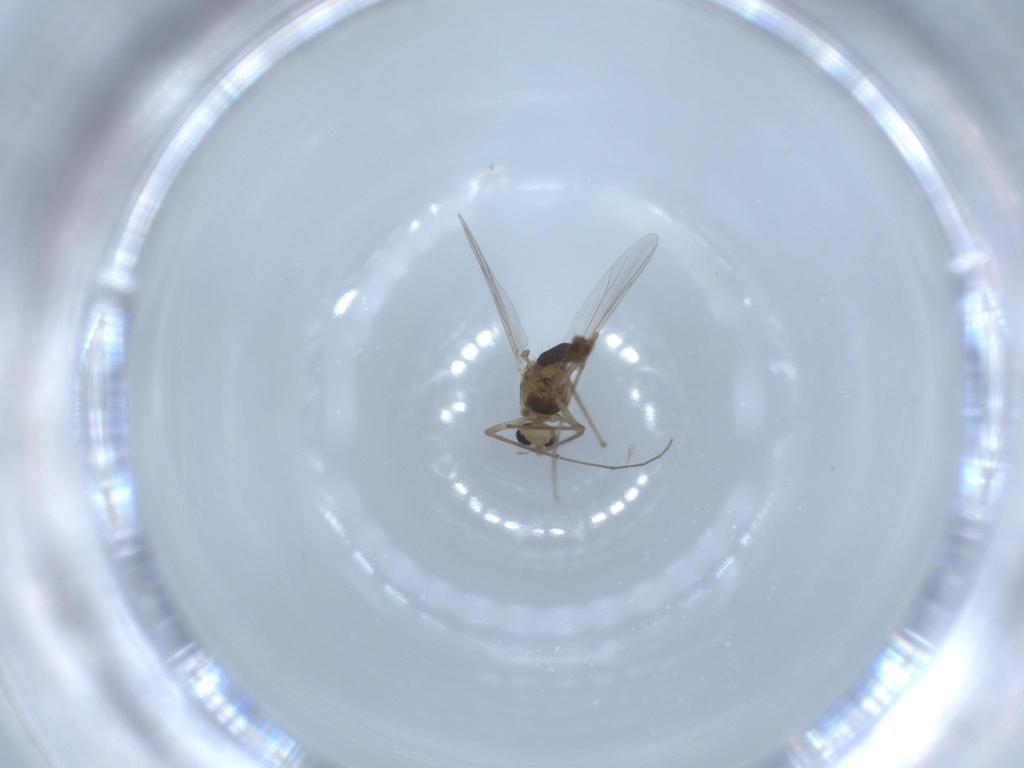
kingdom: Animalia
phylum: Arthropoda
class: Insecta
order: Diptera
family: Chironomidae
